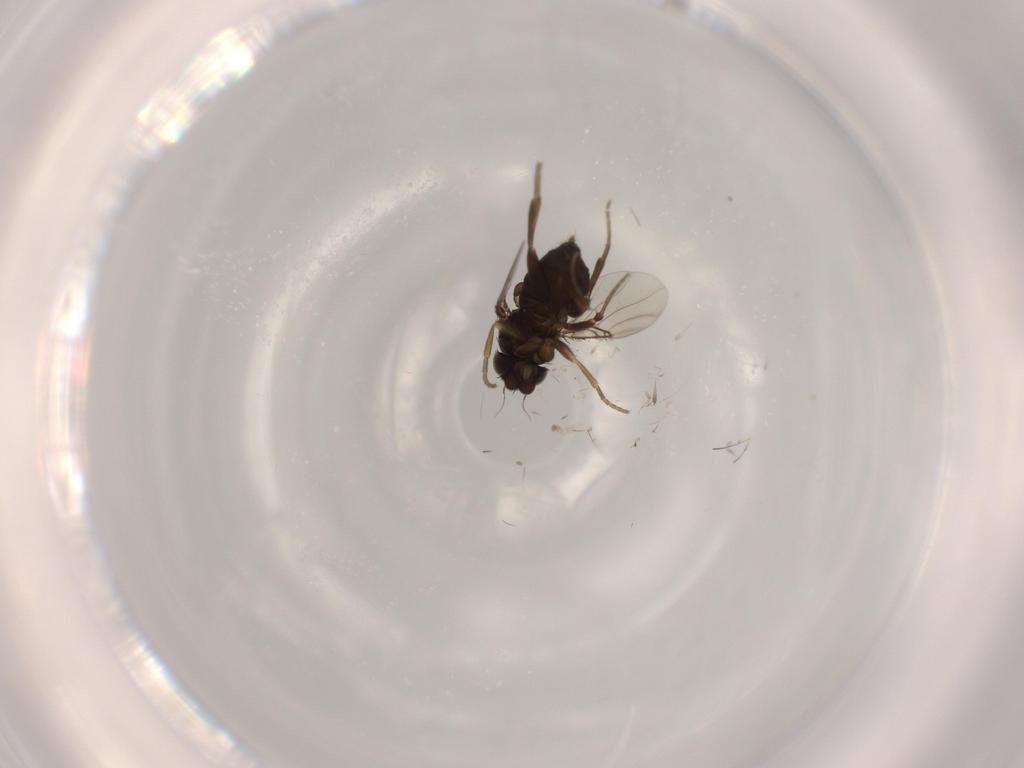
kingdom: Animalia
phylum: Arthropoda
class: Insecta
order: Diptera
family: Phoridae
